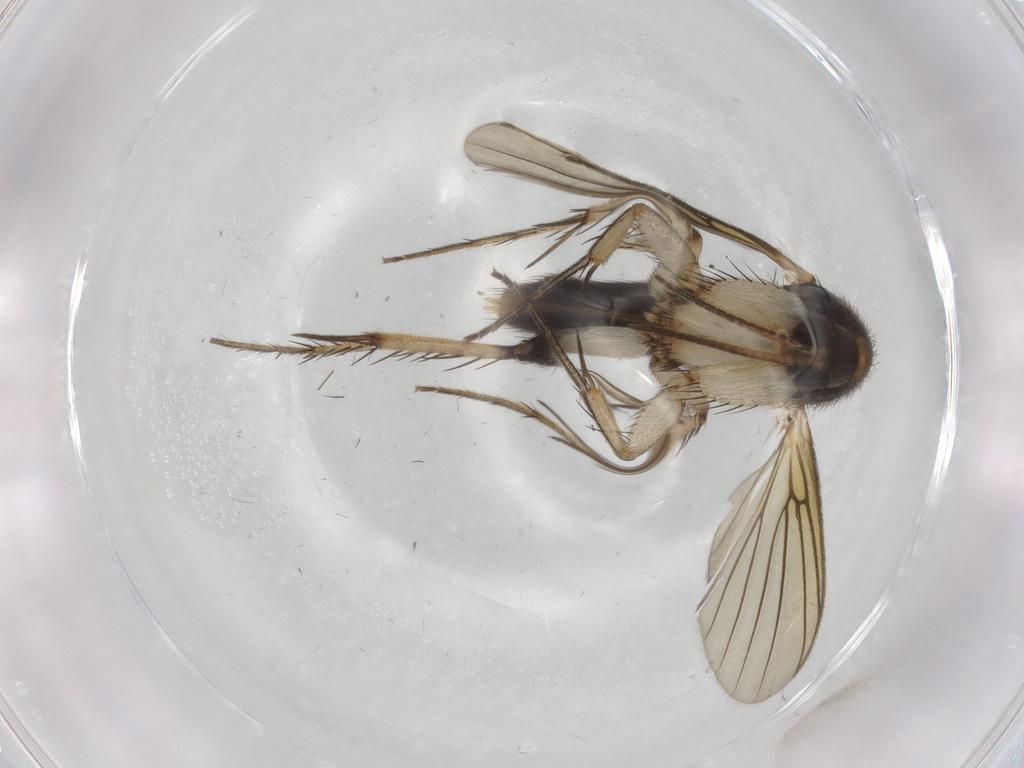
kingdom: Animalia
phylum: Arthropoda
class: Insecta
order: Diptera
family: Mycetophilidae
